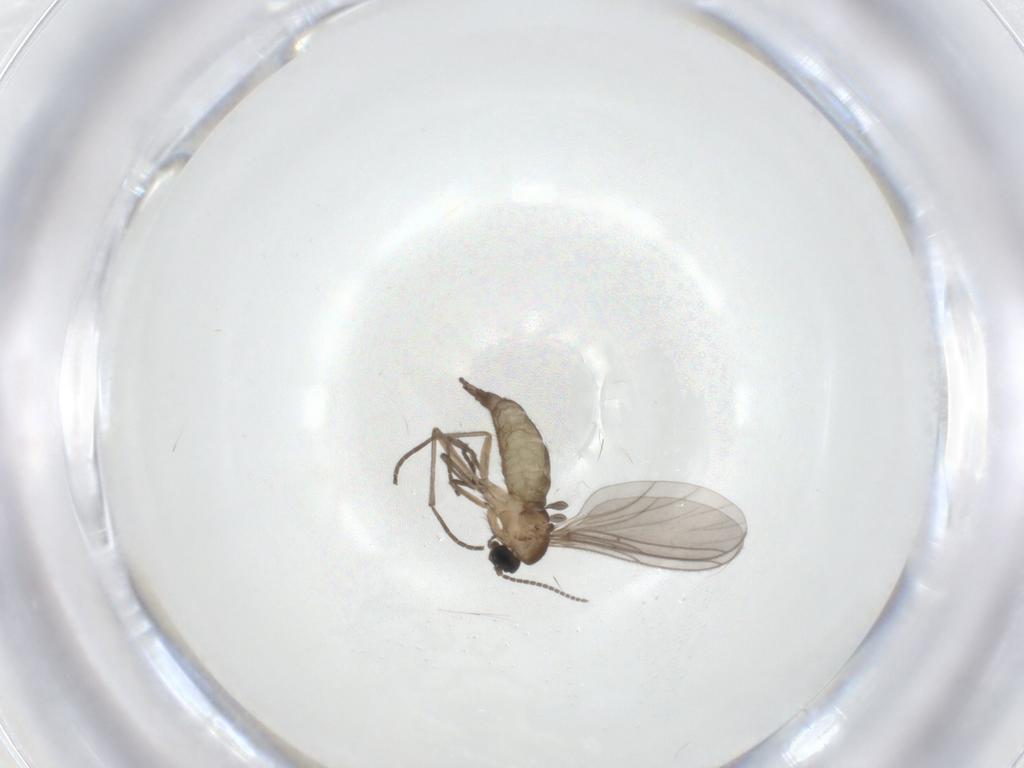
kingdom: Animalia
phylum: Arthropoda
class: Insecta
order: Diptera
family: Sciaridae
